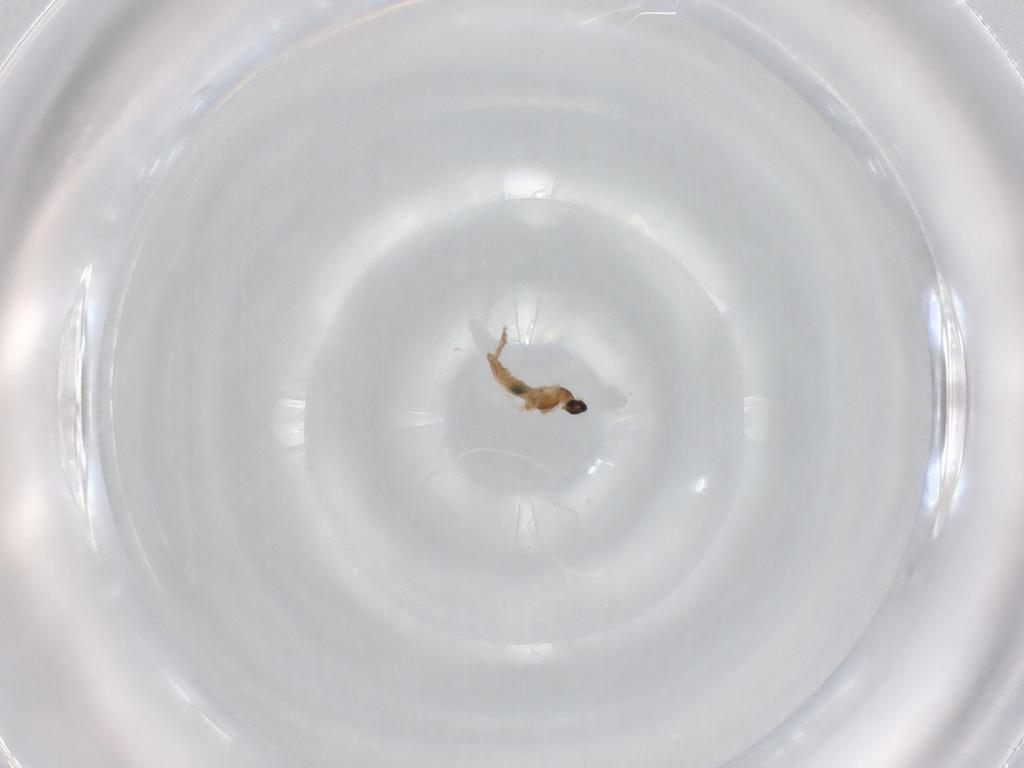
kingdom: Animalia
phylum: Arthropoda
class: Insecta
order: Diptera
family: Cecidomyiidae
